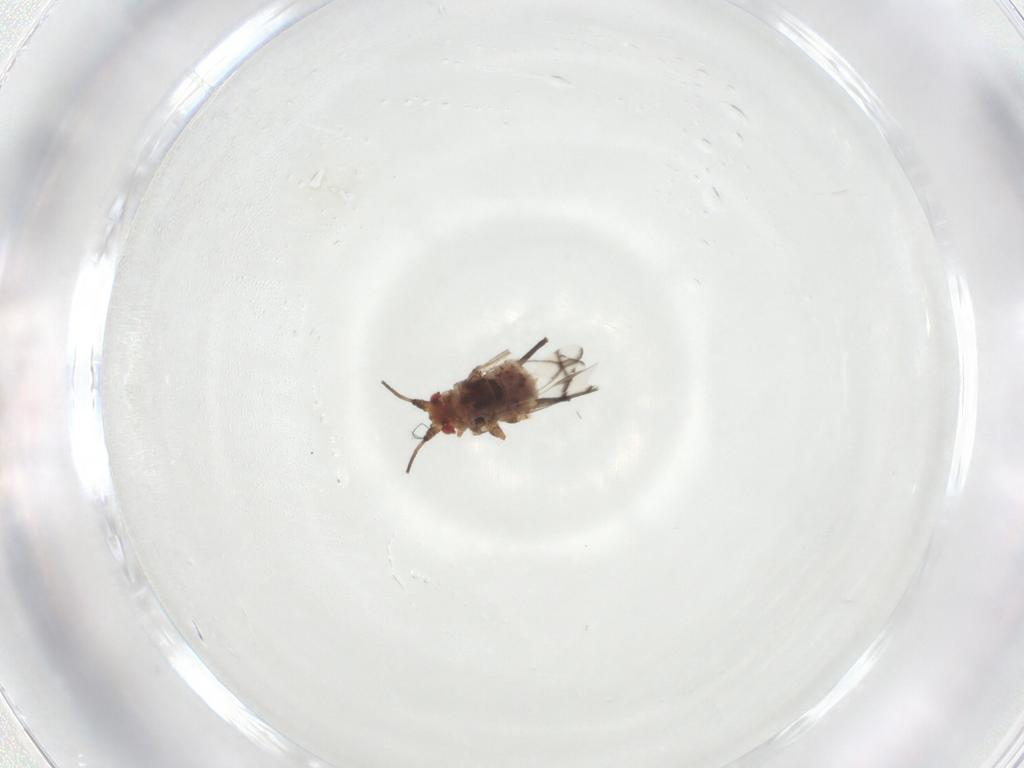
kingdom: Animalia
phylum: Arthropoda
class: Insecta
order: Hemiptera
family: Aphididae
